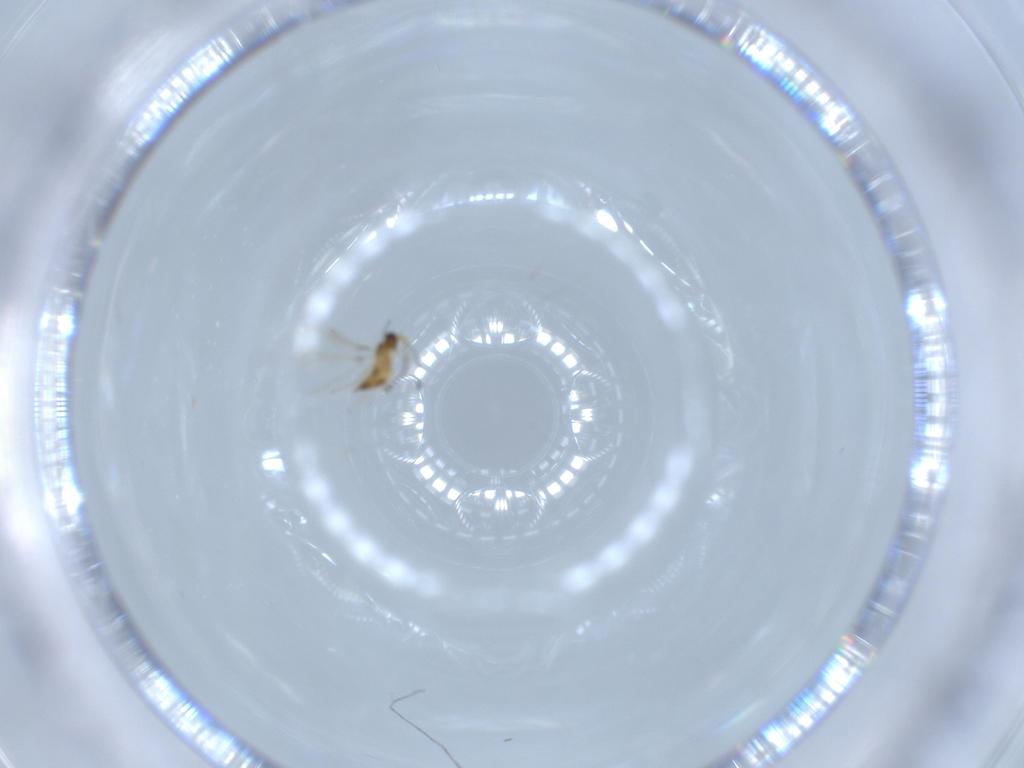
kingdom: Animalia
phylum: Arthropoda
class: Insecta
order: Hymenoptera
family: Mymaridae
